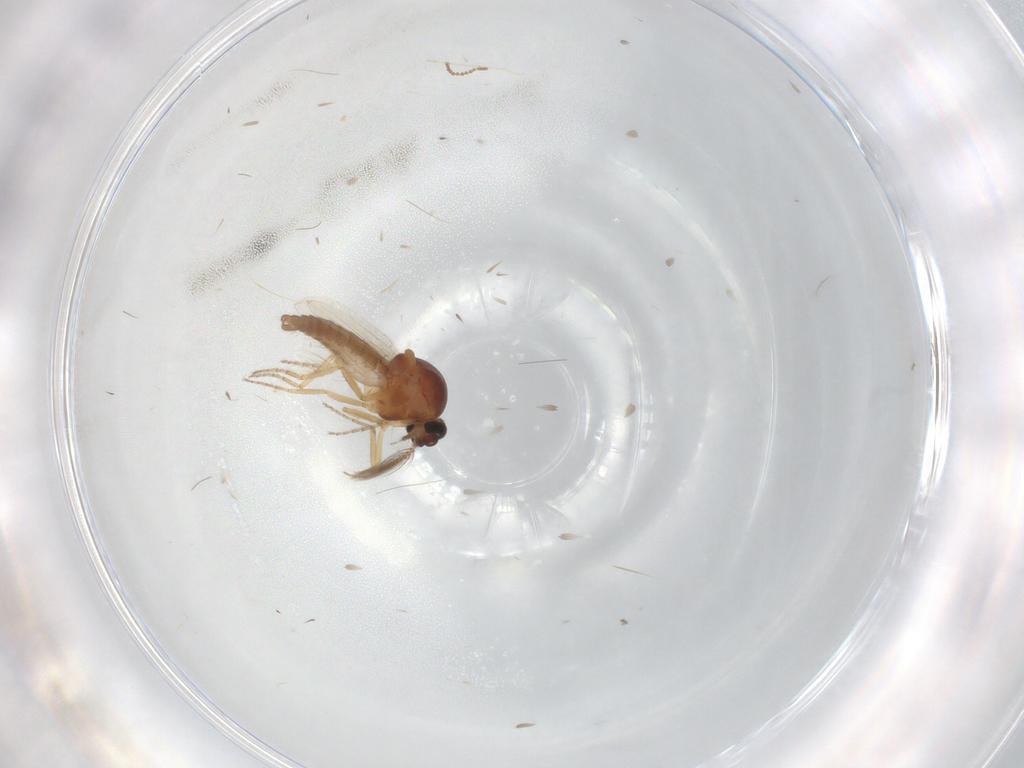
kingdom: Animalia
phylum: Arthropoda
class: Insecta
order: Diptera
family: Ceratopogonidae
